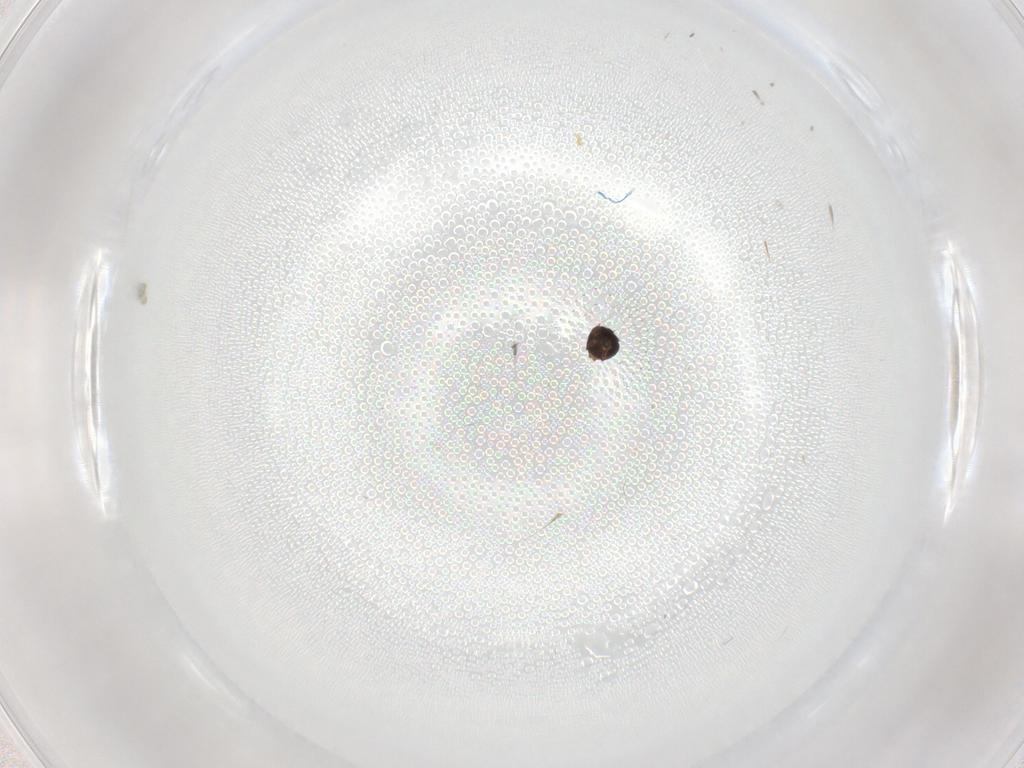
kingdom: Animalia
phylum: Arthropoda
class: Insecta
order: Diptera
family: Sphaeroceridae
